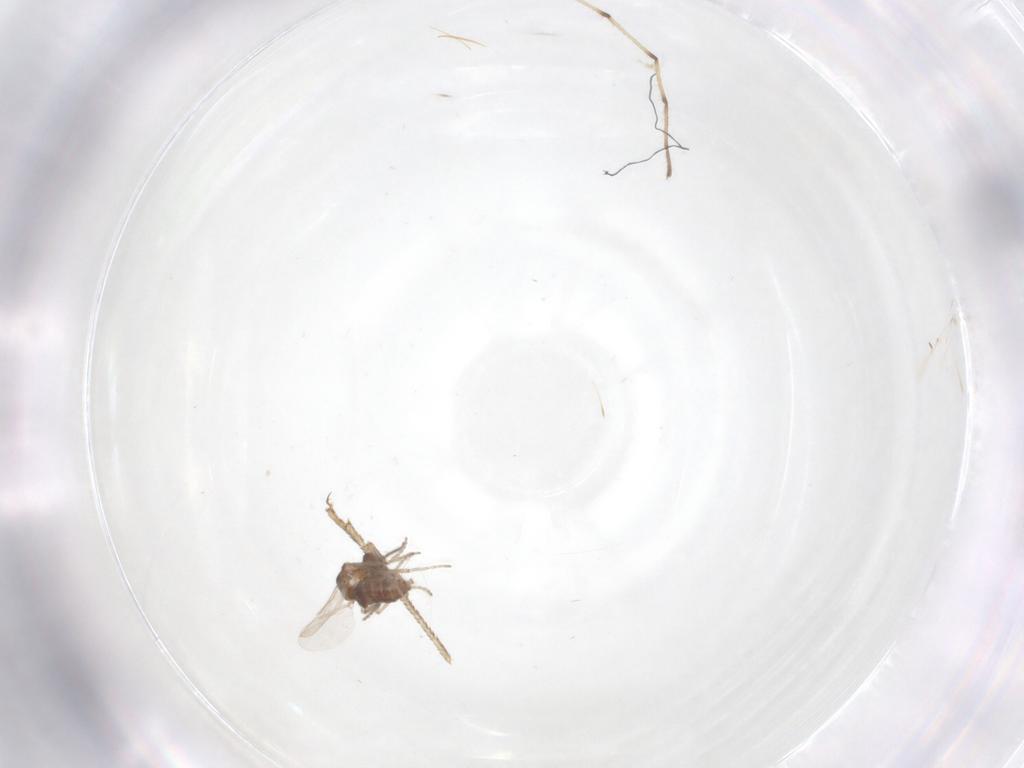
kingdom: Animalia
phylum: Arthropoda
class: Insecta
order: Diptera
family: Ceratopogonidae
